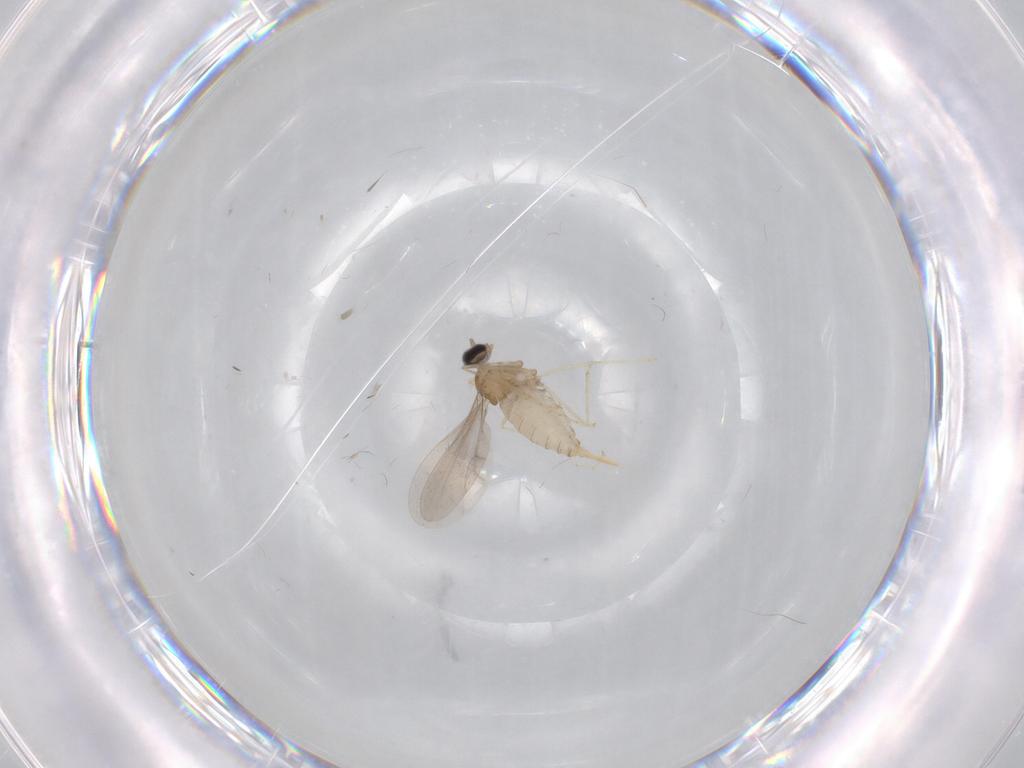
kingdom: Animalia
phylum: Arthropoda
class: Insecta
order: Diptera
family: Cecidomyiidae
